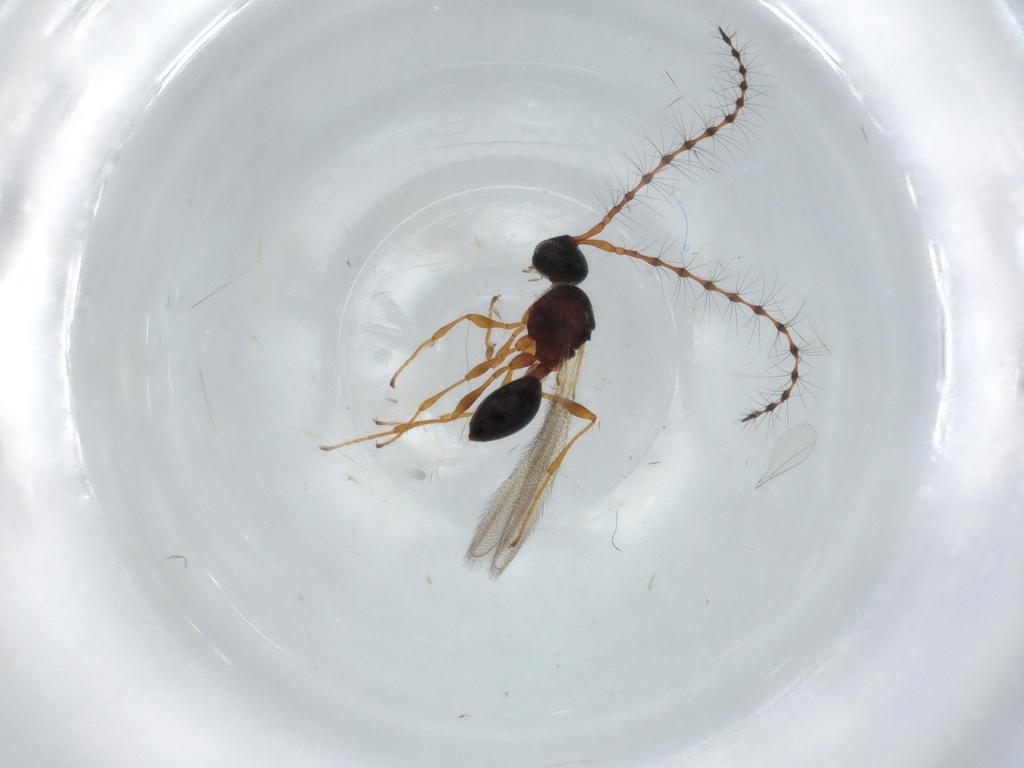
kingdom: Animalia
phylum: Arthropoda
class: Insecta
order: Hymenoptera
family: Diapriidae
